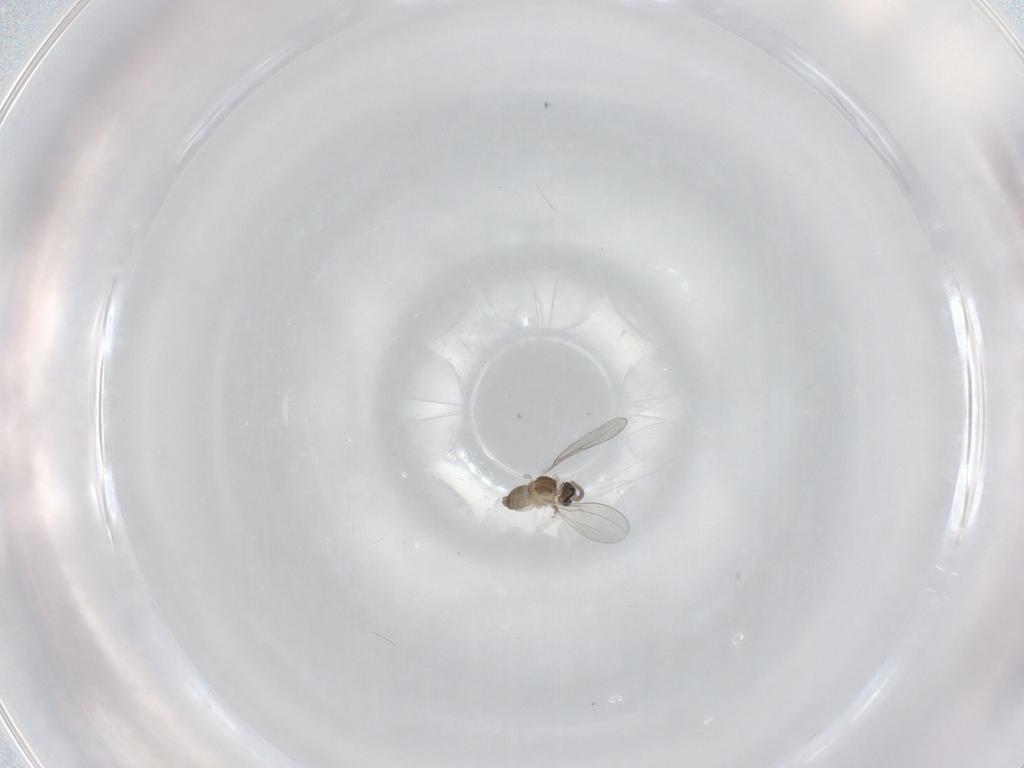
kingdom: Animalia
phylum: Arthropoda
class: Insecta
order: Diptera
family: Cecidomyiidae
